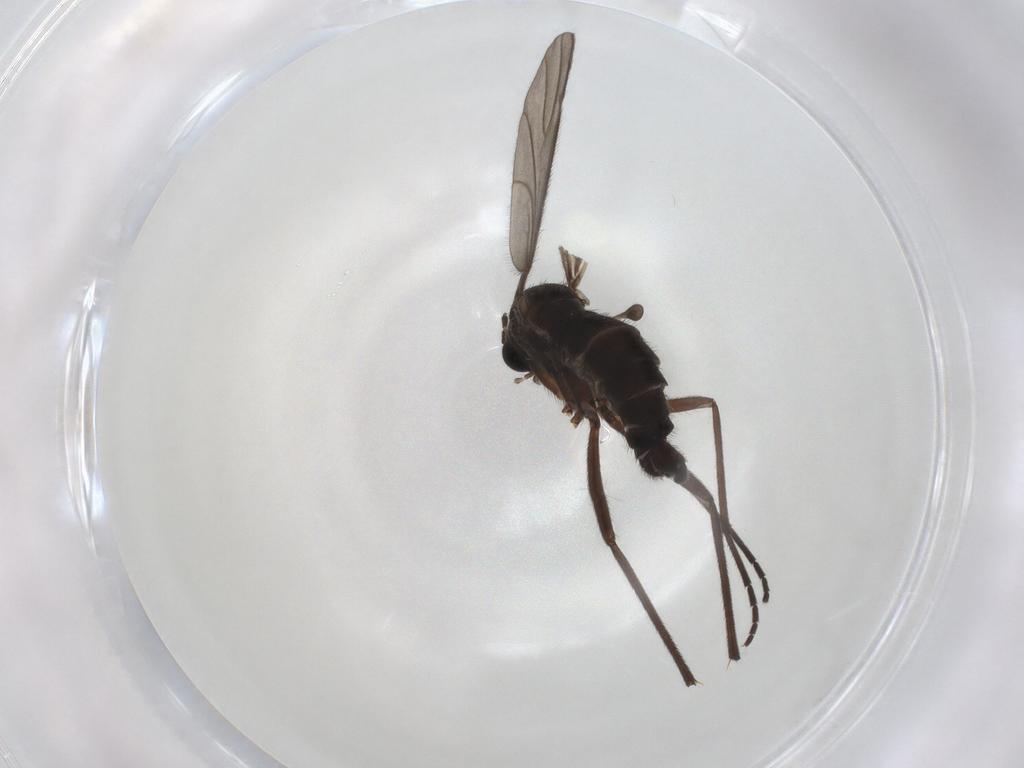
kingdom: Animalia
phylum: Arthropoda
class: Insecta
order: Diptera
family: Sciaridae
